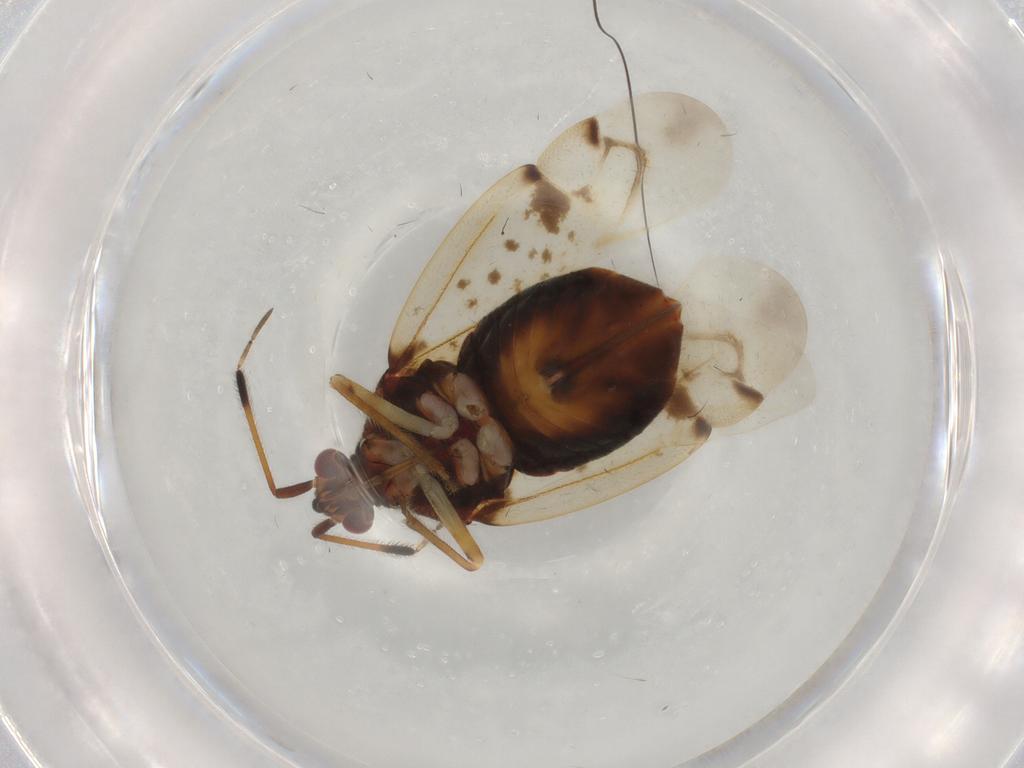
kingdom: Animalia
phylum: Arthropoda
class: Insecta
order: Hemiptera
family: Miridae
